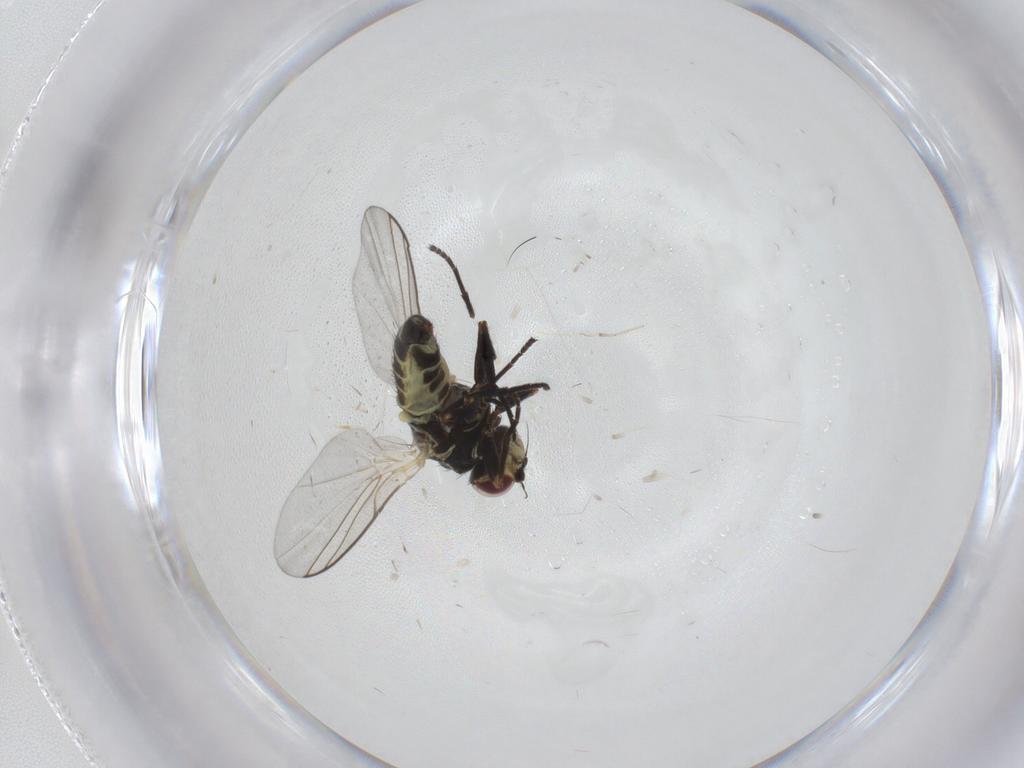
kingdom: Animalia
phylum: Arthropoda
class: Insecta
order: Diptera
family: Agromyzidae
